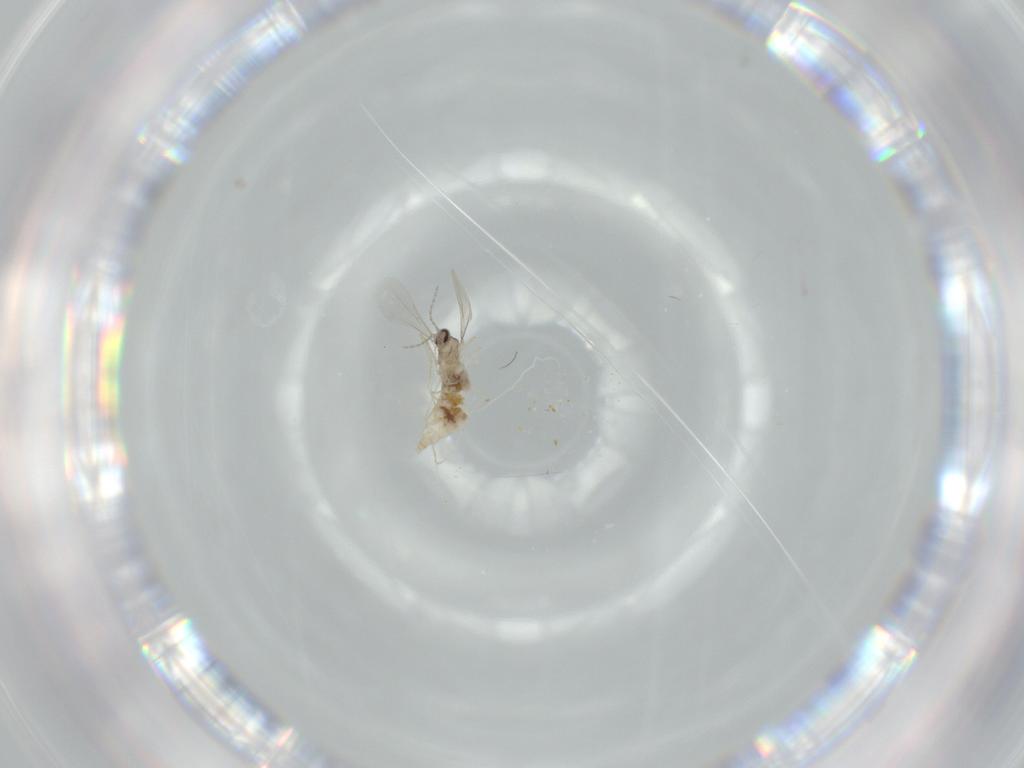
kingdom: Animalia
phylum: Arthropoda
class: Insecta
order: Diptera
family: Cecidomyiidae
